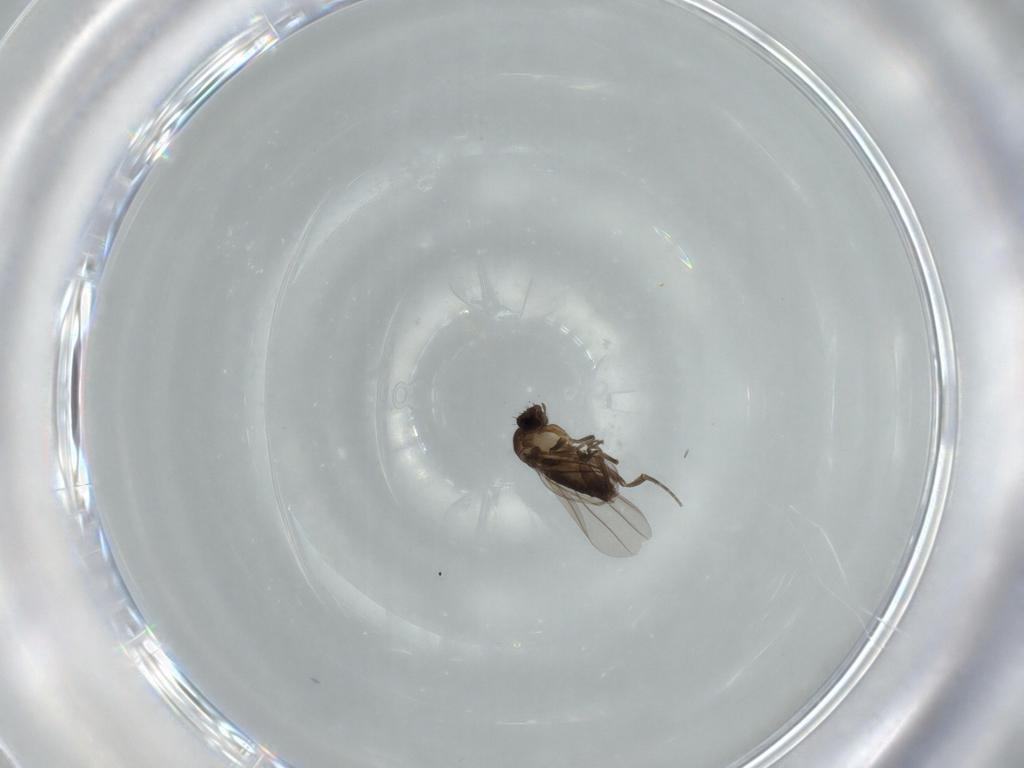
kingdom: Animalia
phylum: Arthropoda
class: Insecta
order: Diptera
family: Phoridae
